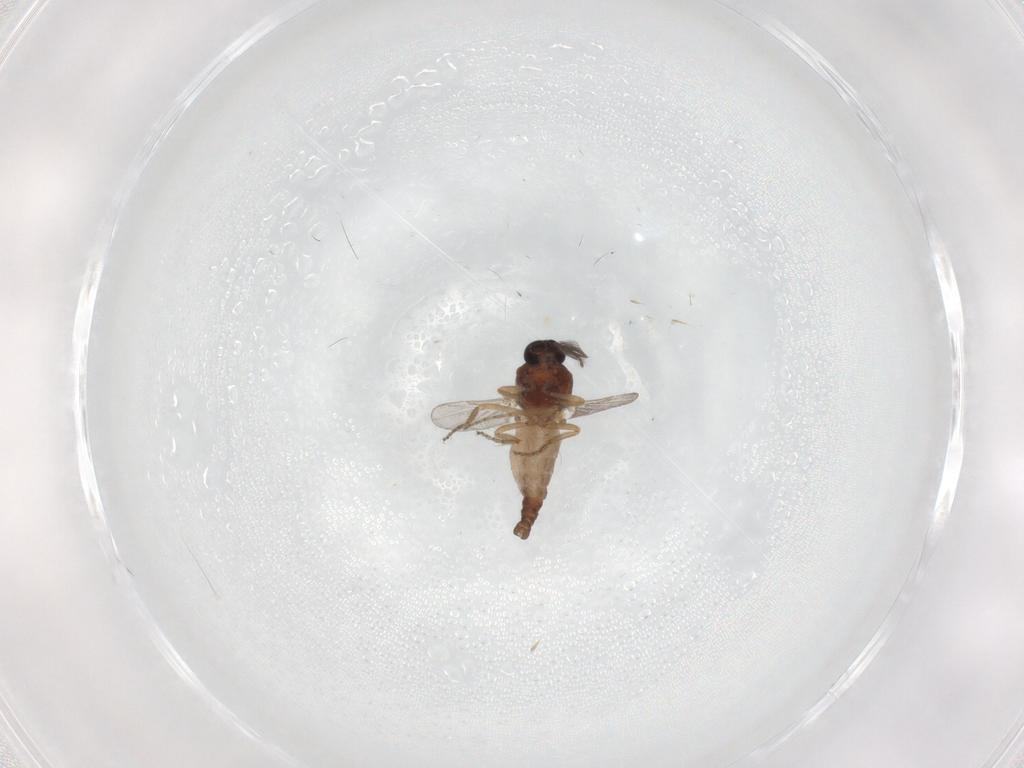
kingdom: Animalia
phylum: Arthropoda
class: Insecta
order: Diptera
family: Ceratopogonidae
